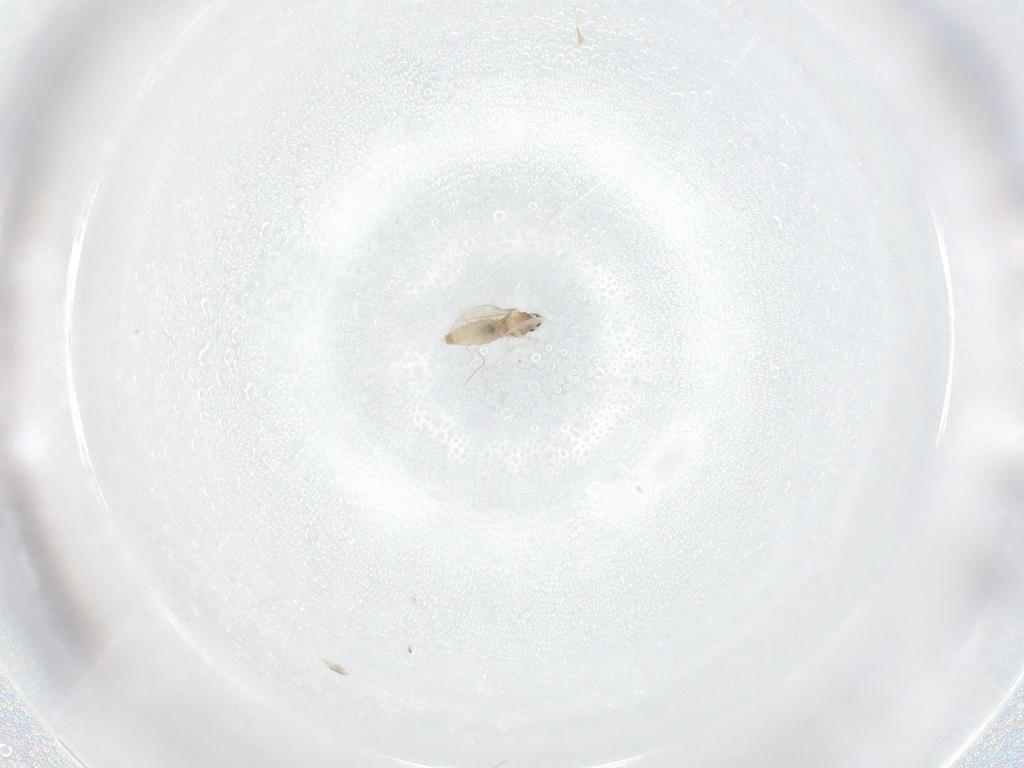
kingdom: Animalia
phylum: Arthropoda
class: Insecta
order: Diptera
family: Cecidomyiidae
